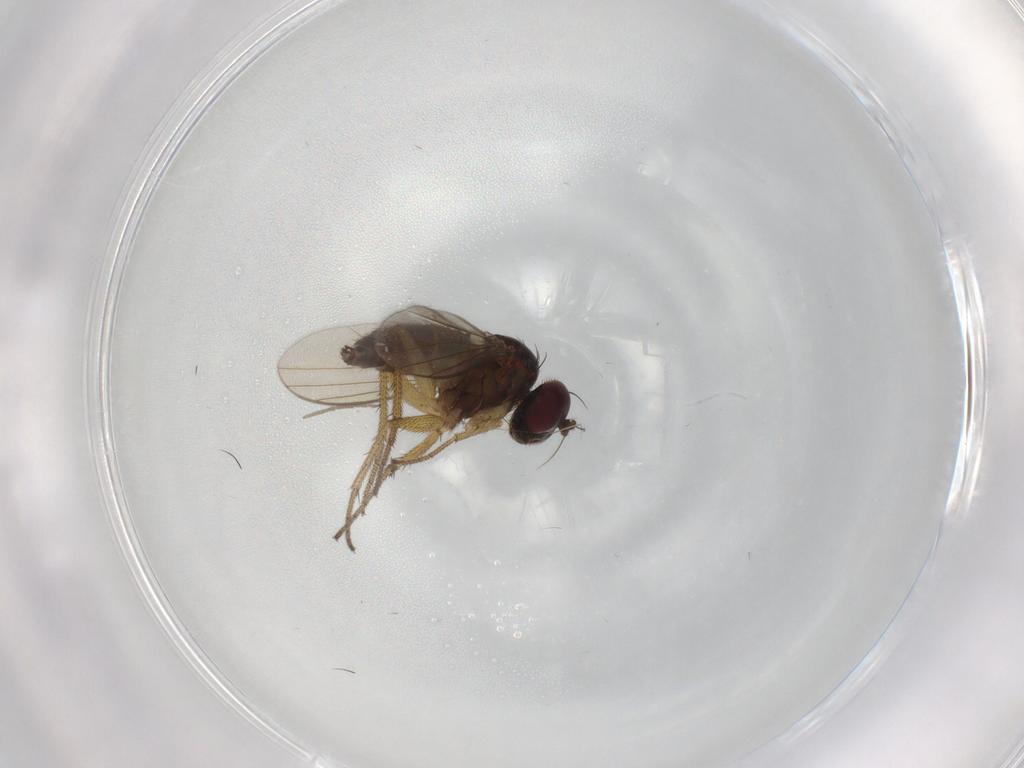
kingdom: Animalia
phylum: Arthropoda
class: Insecta
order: Diptera
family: Dolichopodidae
